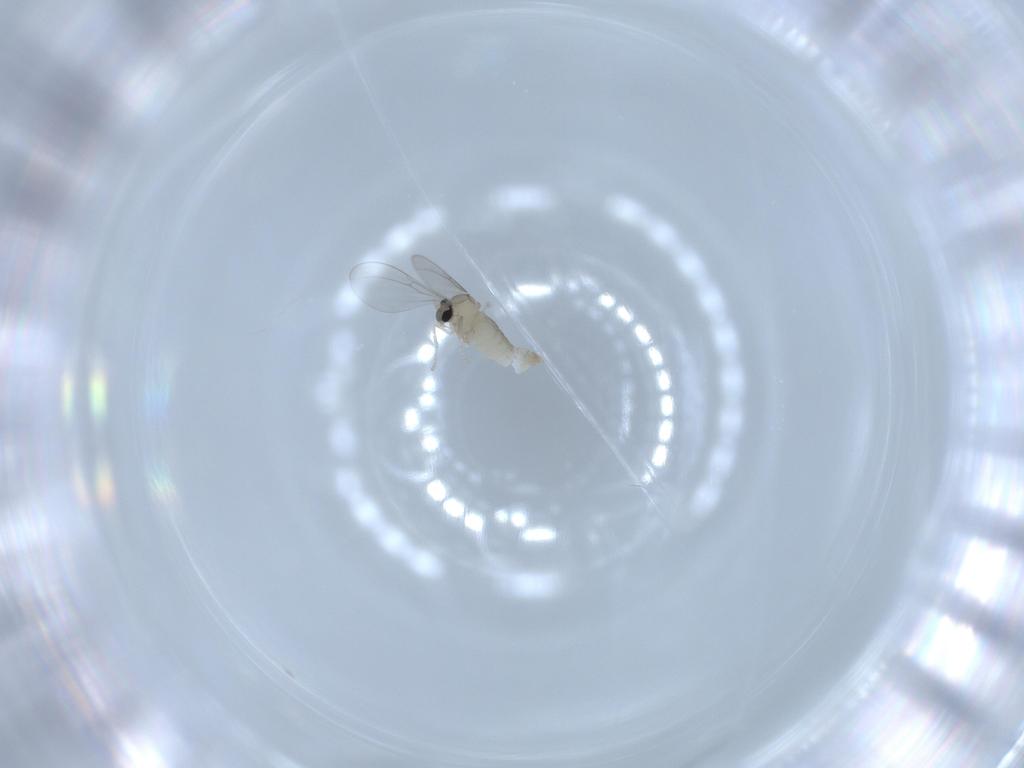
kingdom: Animalia
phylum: Arthropoda
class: Insecta
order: Diptera
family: Cecidomyiidae
